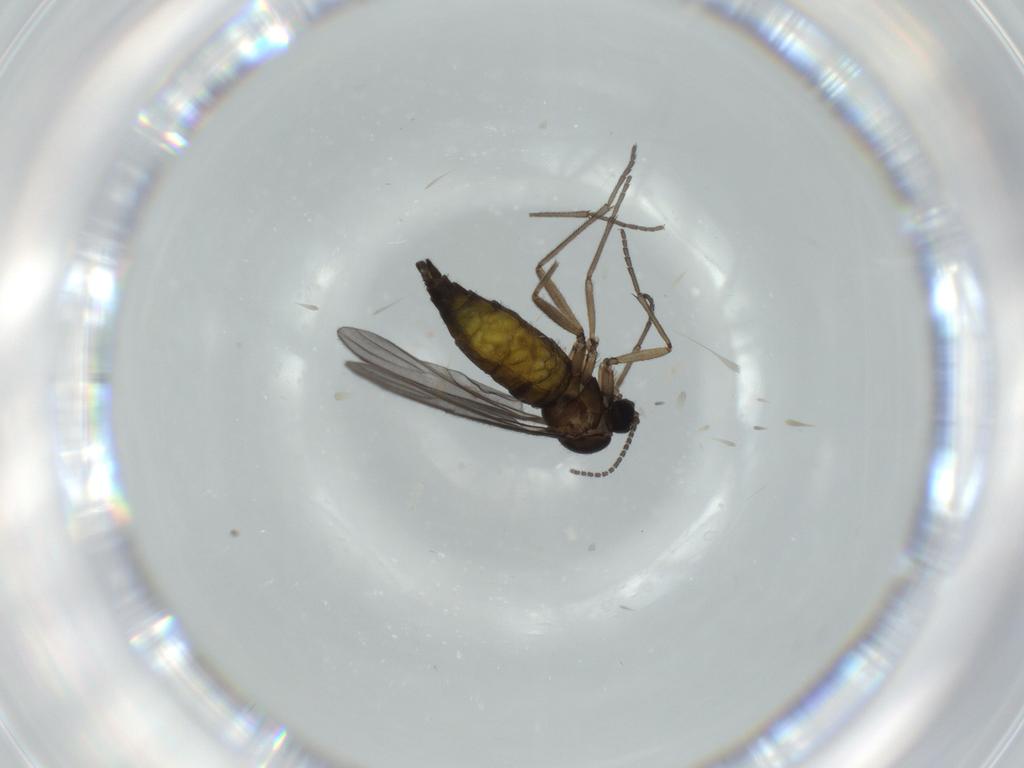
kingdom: Animalia
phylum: Arthropoda
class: Insecta
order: Diptera
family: Sciaridae
